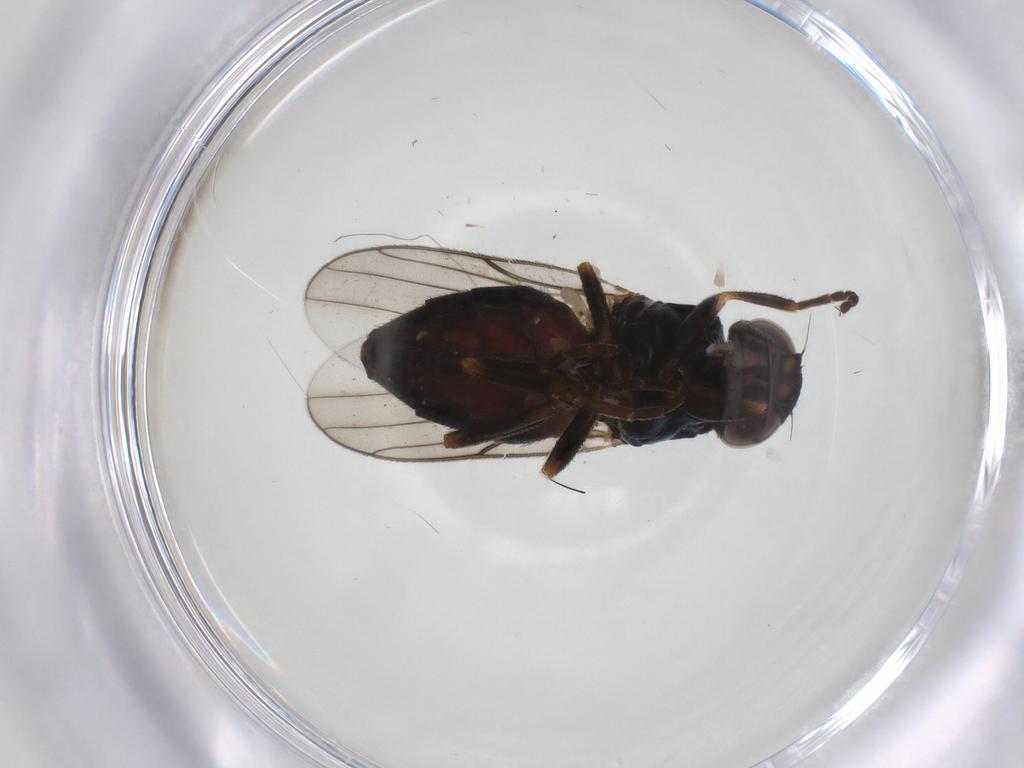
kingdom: Animalia
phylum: Arthropoda
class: Insecta
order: Diptera
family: Chloropidae
